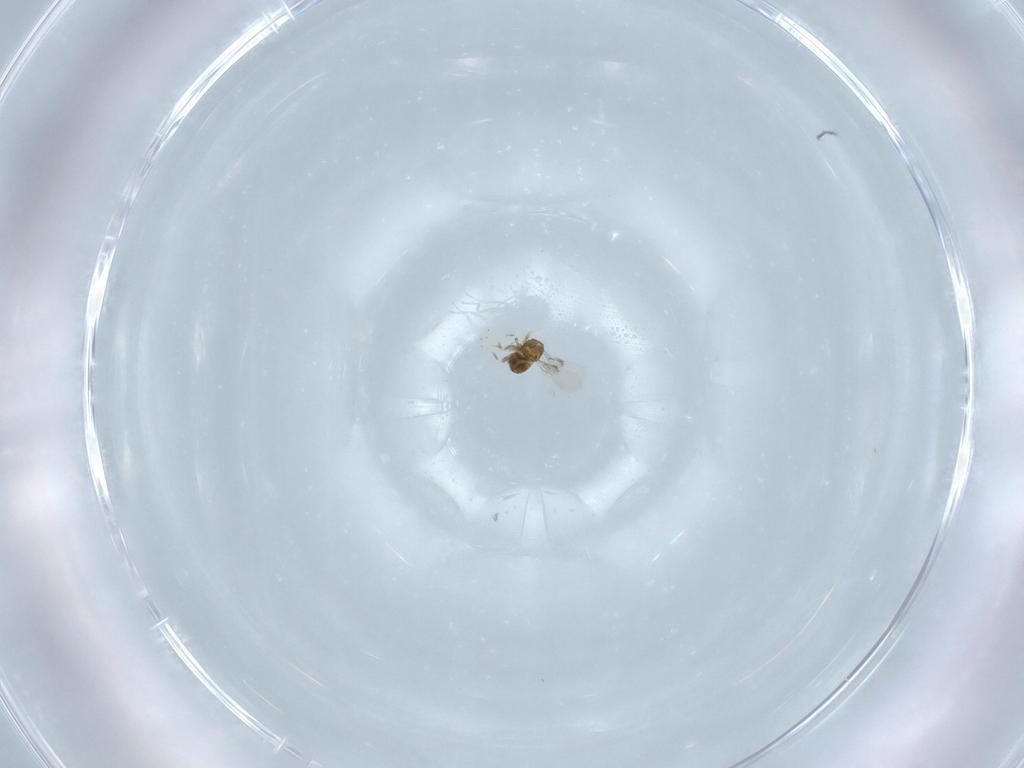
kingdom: Animalia
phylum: Arthropoda
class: Insecta
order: Hymenoptera
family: Trichogrammatidae
